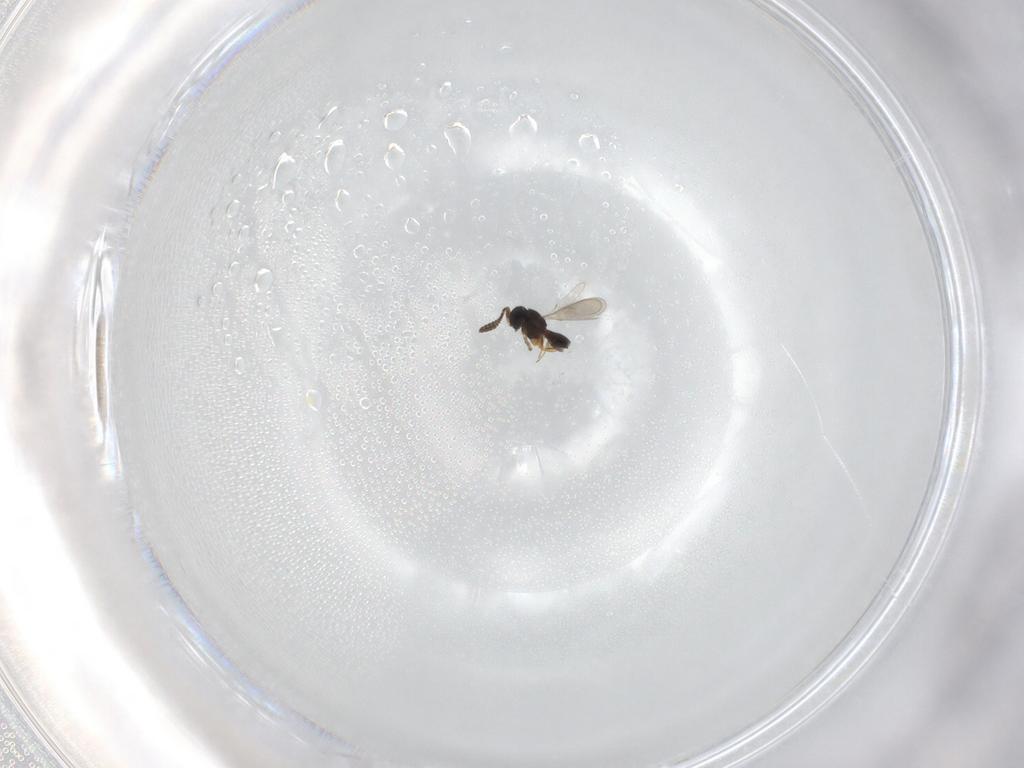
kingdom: Animalia
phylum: Arthropoda
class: Insecta
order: Hymenoptera
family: Scelionidae
